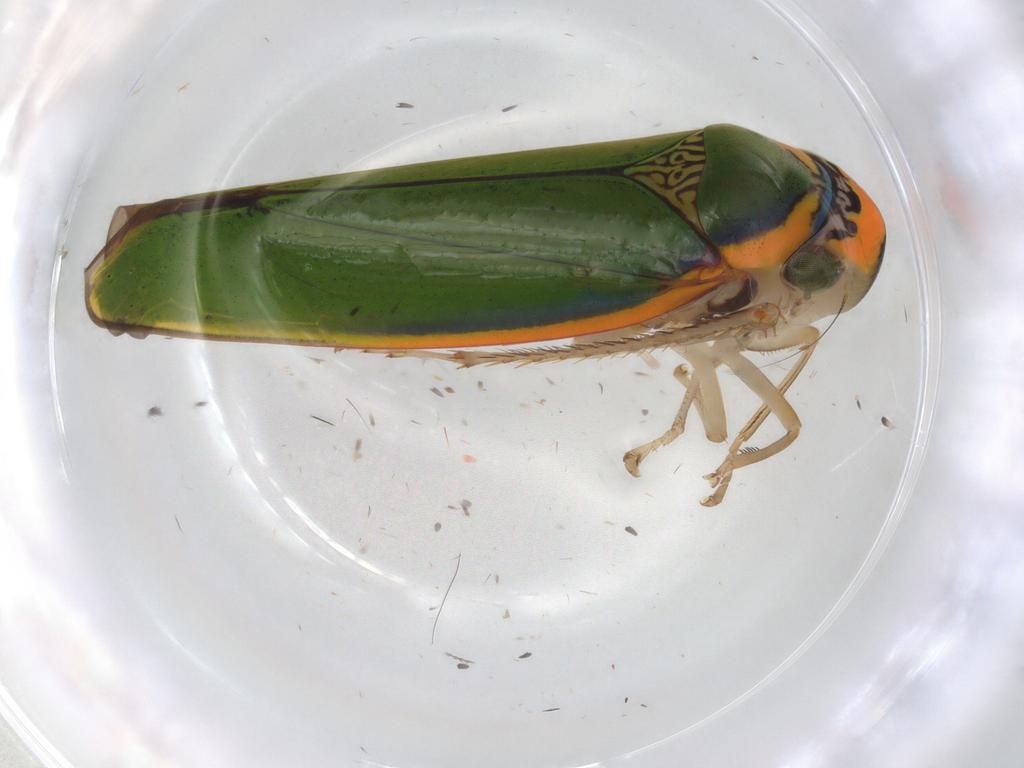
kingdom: Animalia
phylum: Arthropoda
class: Insecta
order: Hemiptera
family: Cicadellidae
